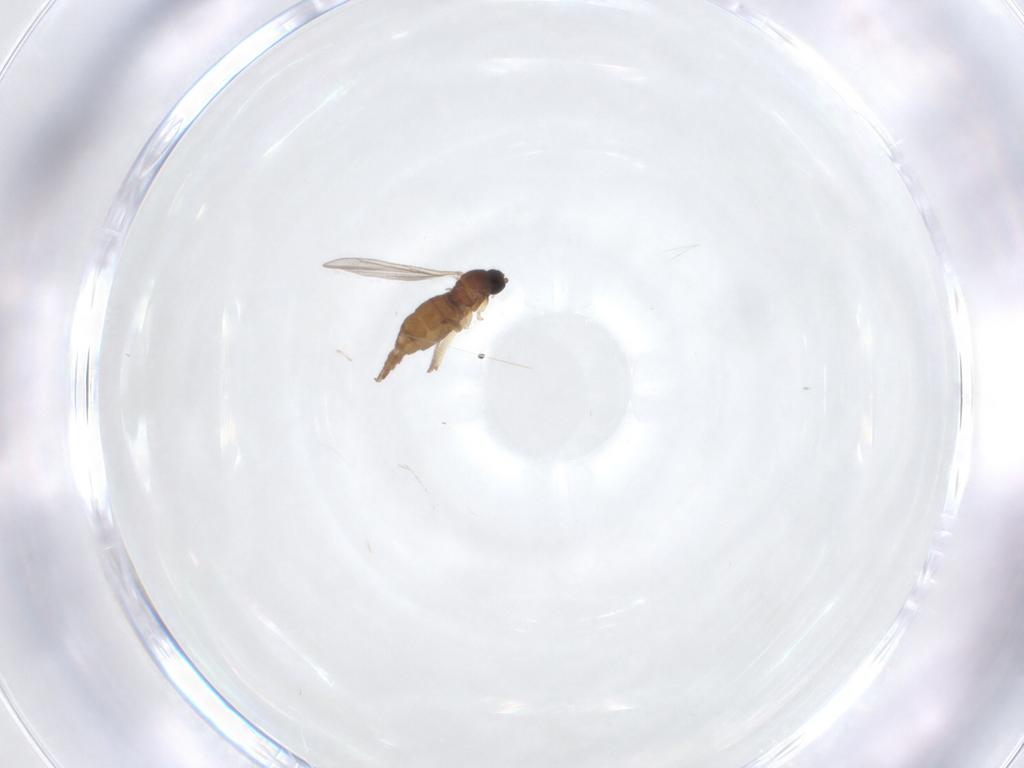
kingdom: Animalia
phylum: Arthropoda
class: Insecta
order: Diptera
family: Sciaridae
